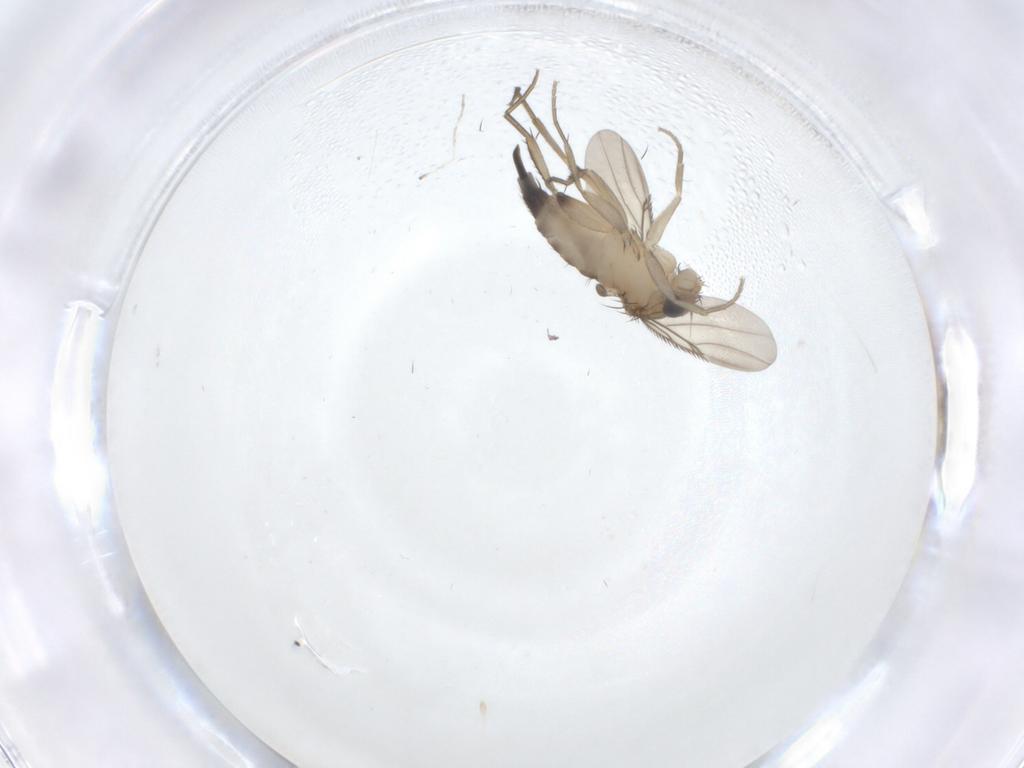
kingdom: Animalia
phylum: Arthropoda
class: Insecta
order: Diptera
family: Phoridae
